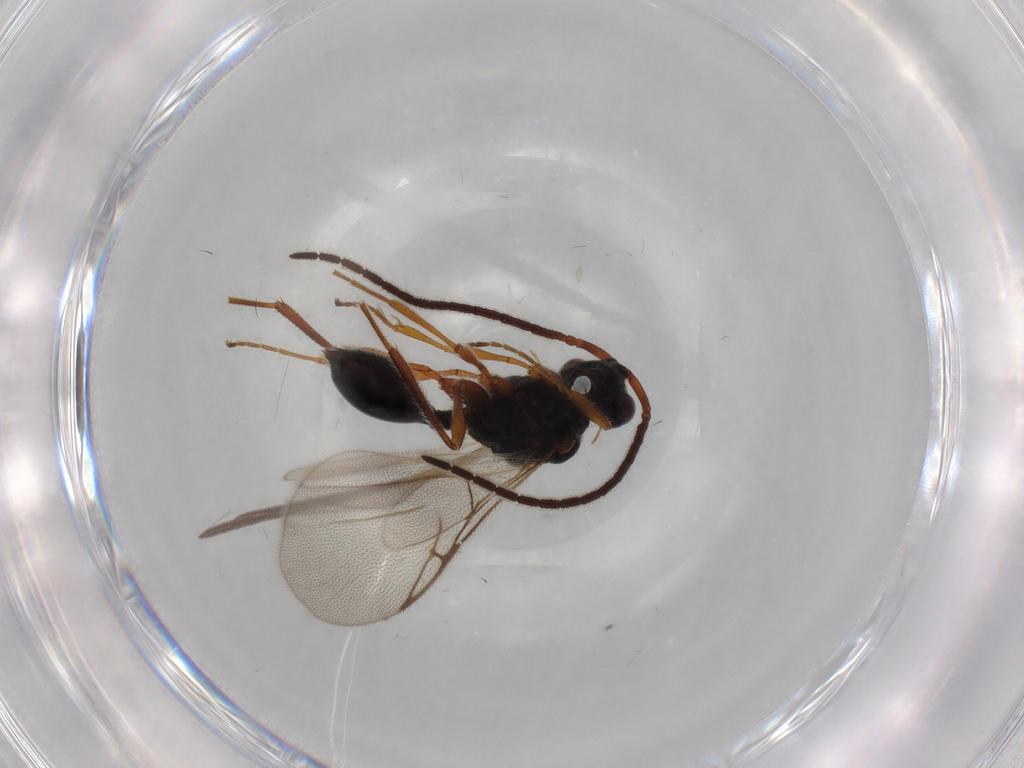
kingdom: Animalia
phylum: Arthropoda
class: Insecta
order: Hymenoptera
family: Diapriidae
